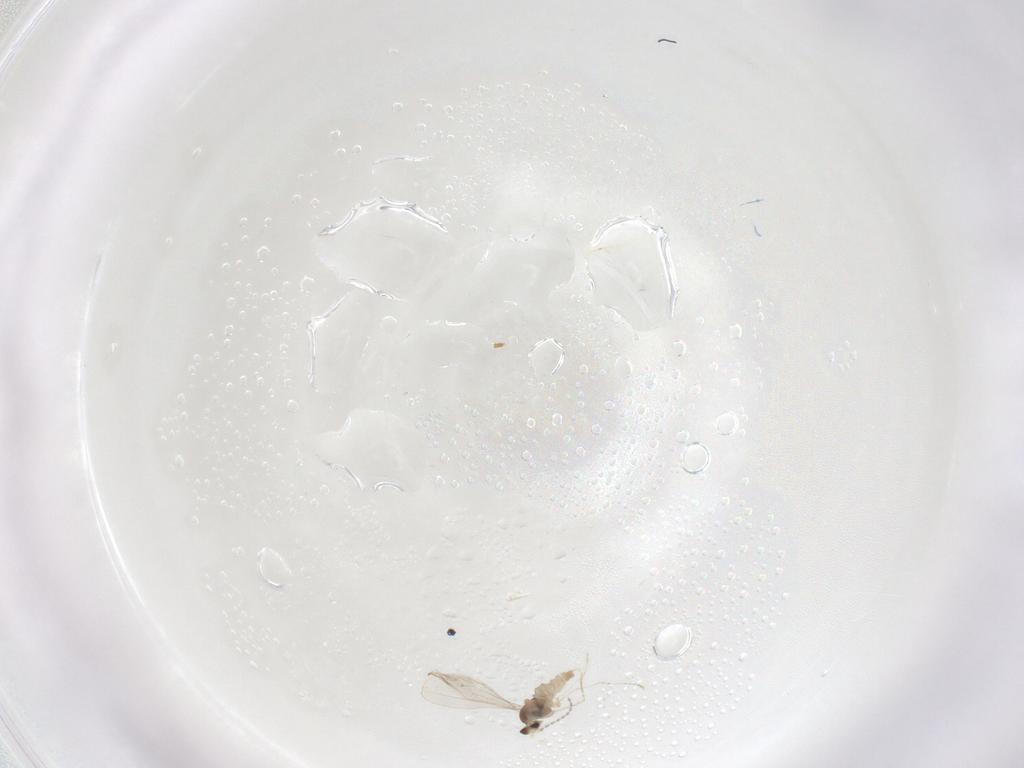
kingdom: Animalia
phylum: Arthropoda
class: Insecta
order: Diptera
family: Cecidomyiidae
